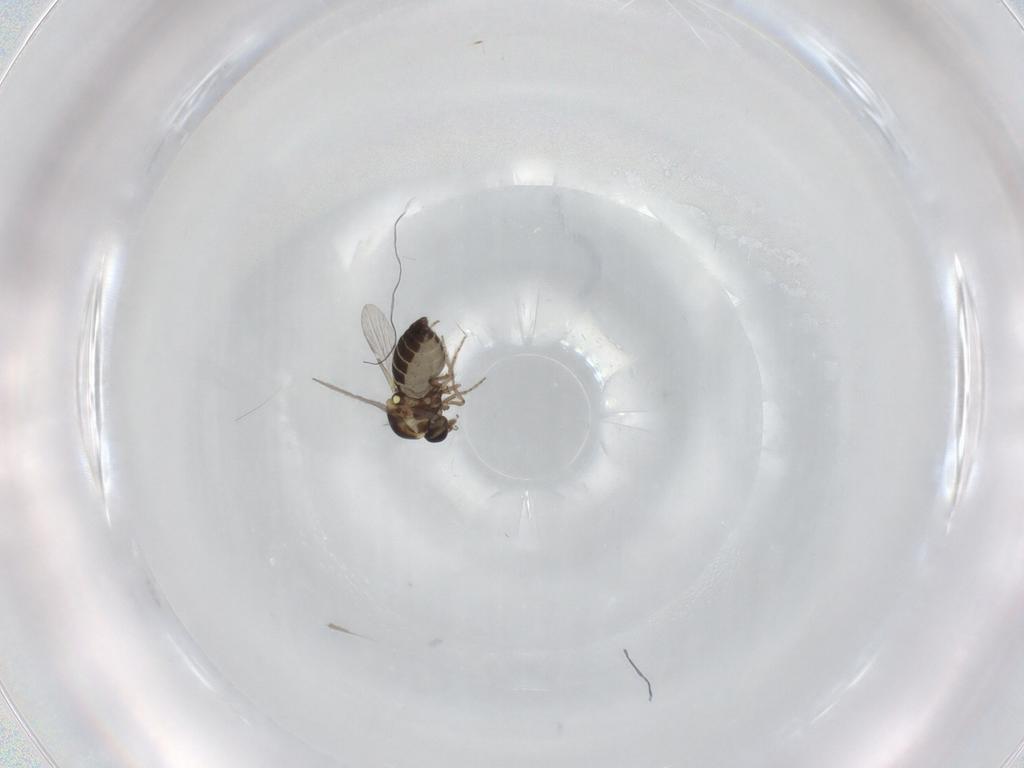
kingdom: Animalia
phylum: Arthropoda
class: Insecta
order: Diptera
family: Ceratopogonidae
